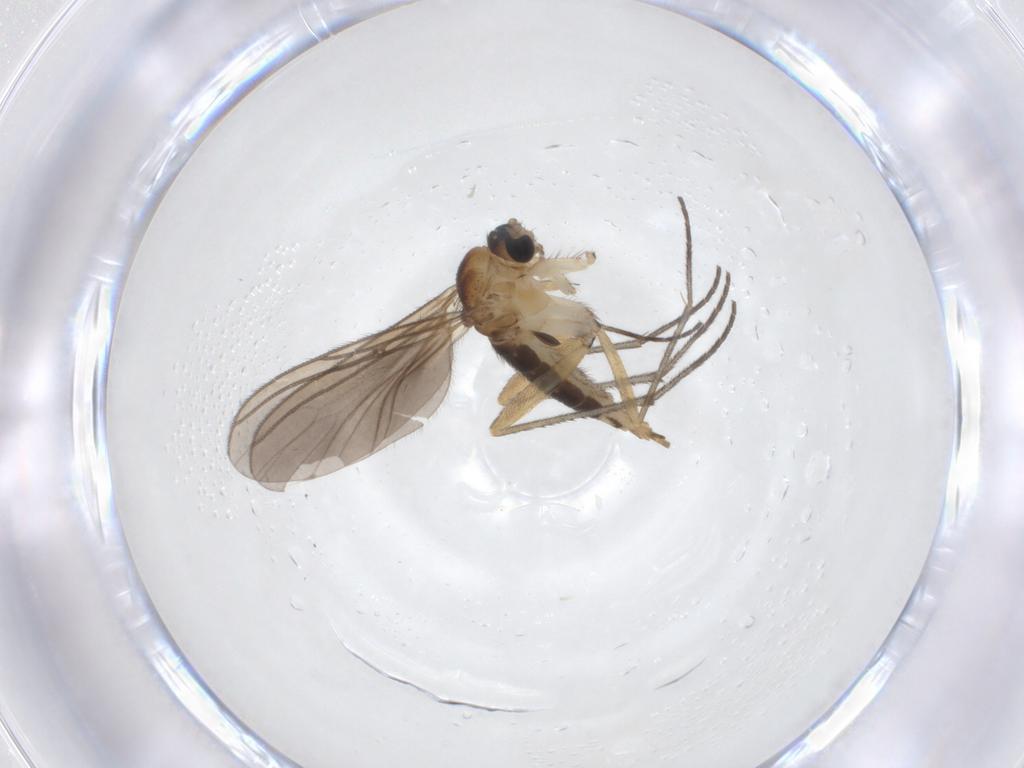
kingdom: Animalia
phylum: Arthropoda
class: Insecta
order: Diptera
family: Sciaridae
